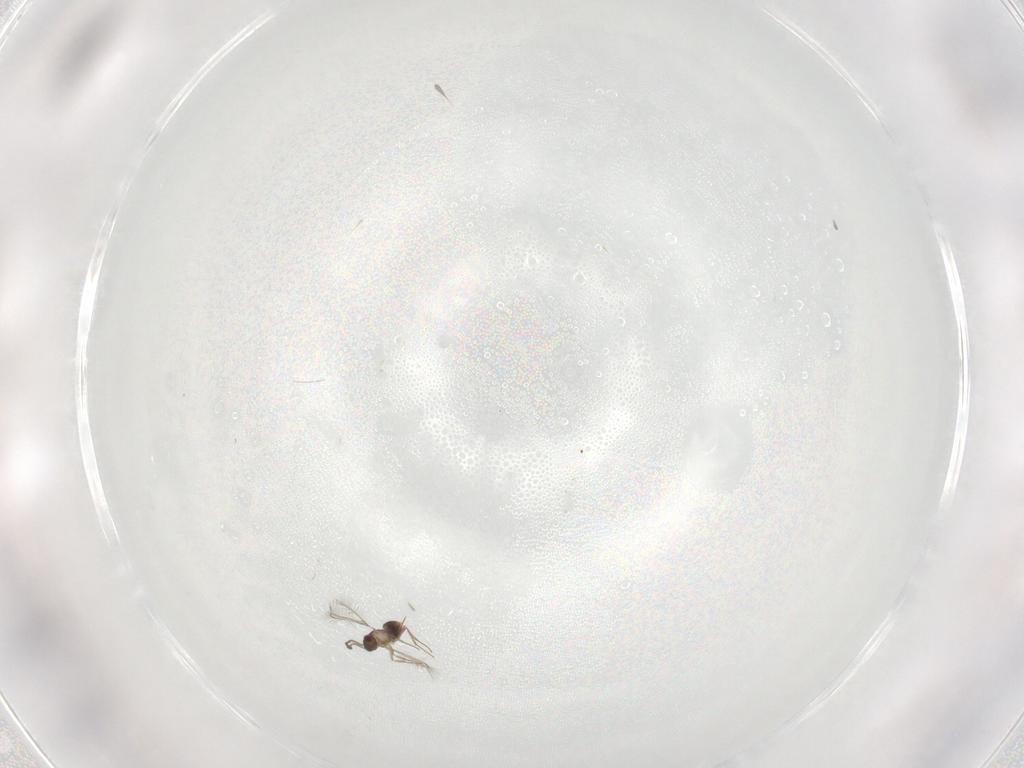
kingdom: Animalia
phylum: Arthropoda
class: Insecta
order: Hymenoptera
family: Mymaridae
